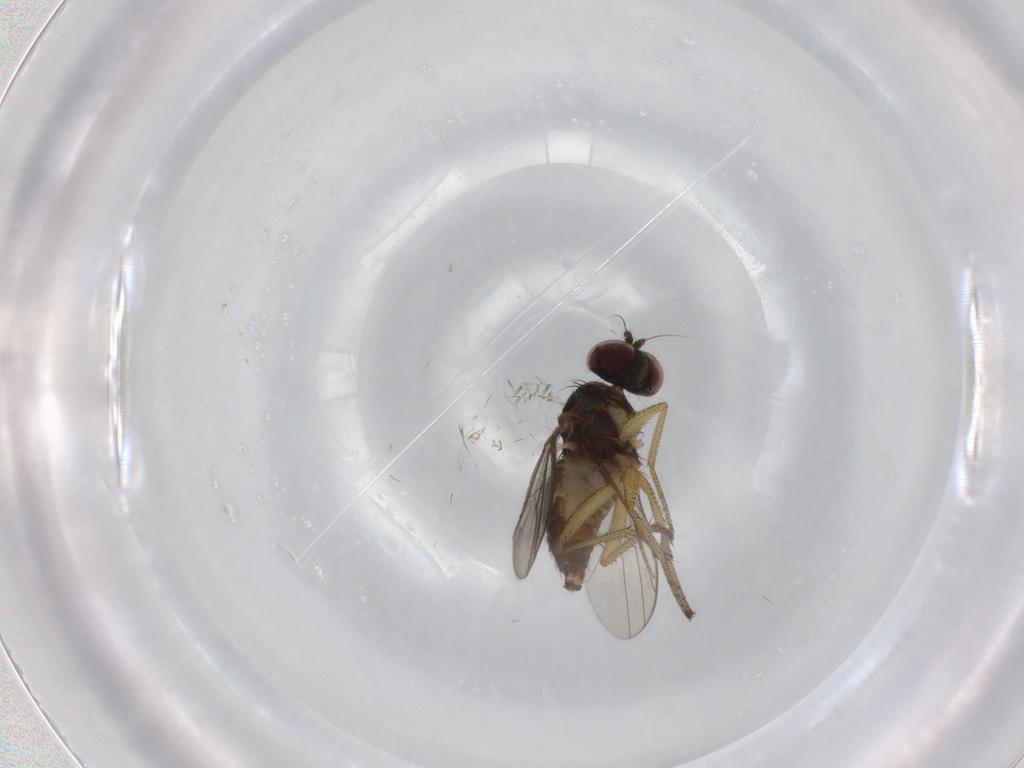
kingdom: Animalia
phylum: Arthropoda
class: Insecta
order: Diptera
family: Dolichopodidae
